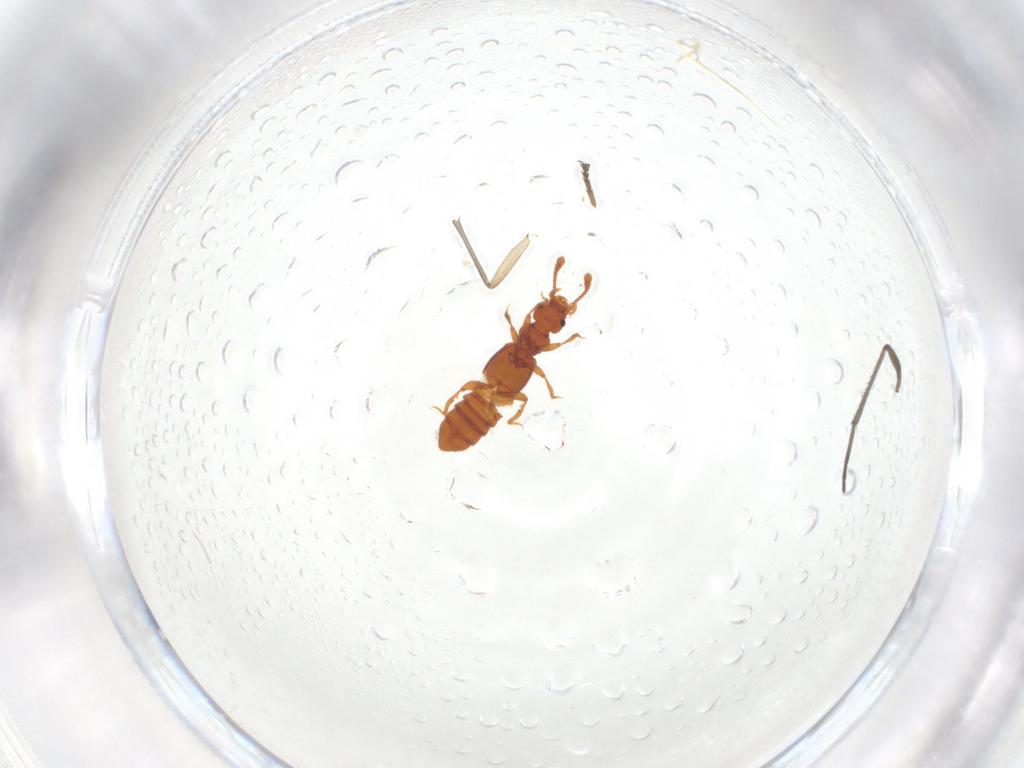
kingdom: Animalia
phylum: Arthropoda
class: Insecta
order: Coleoptera
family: Staphylinidae
